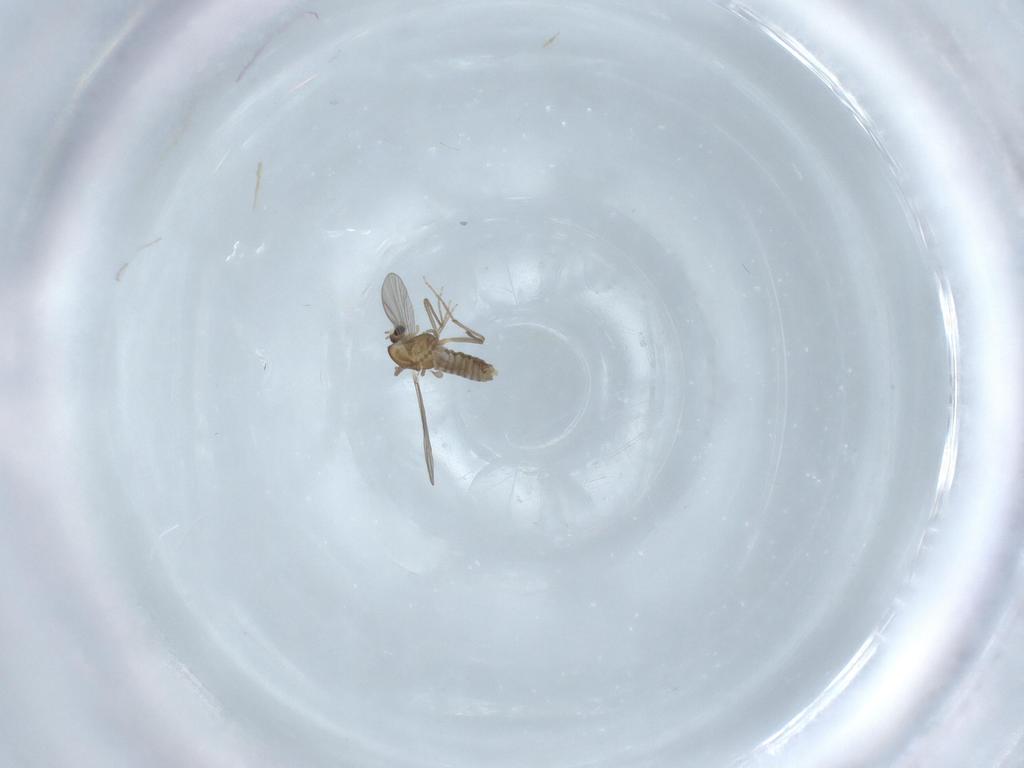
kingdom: Animalia
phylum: Arthropoda
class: Insecta
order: Diptera
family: Chironomidae
